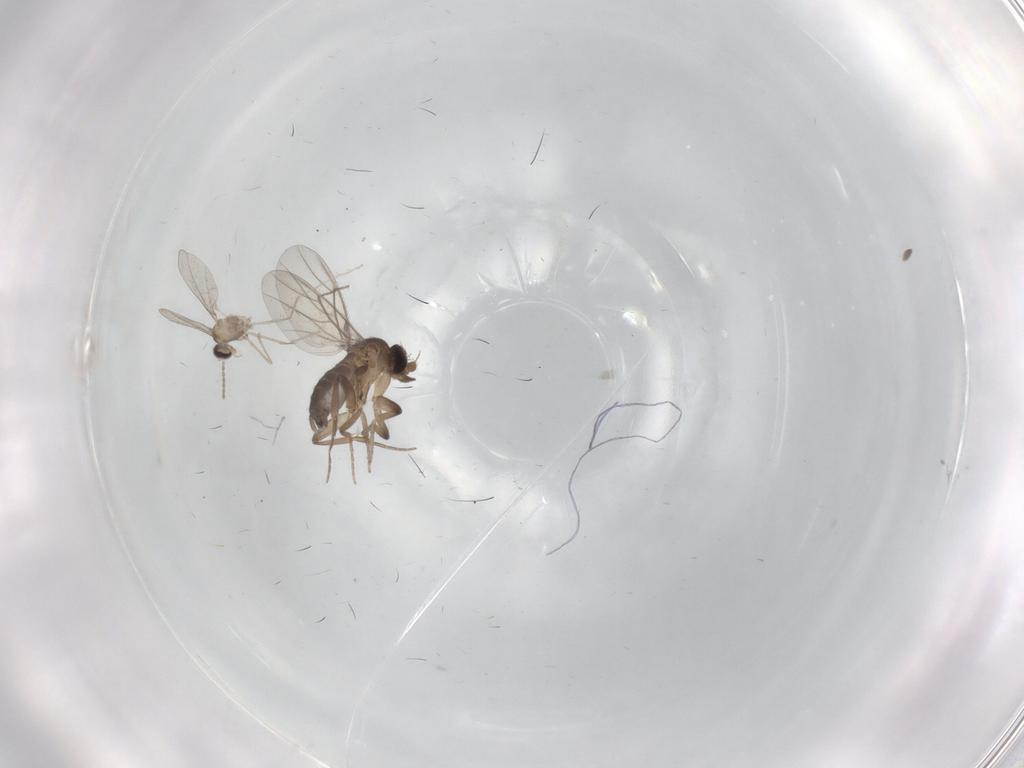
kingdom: Animalia
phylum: Arthropoda
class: Insecta
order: Diptera
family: Phoridae
